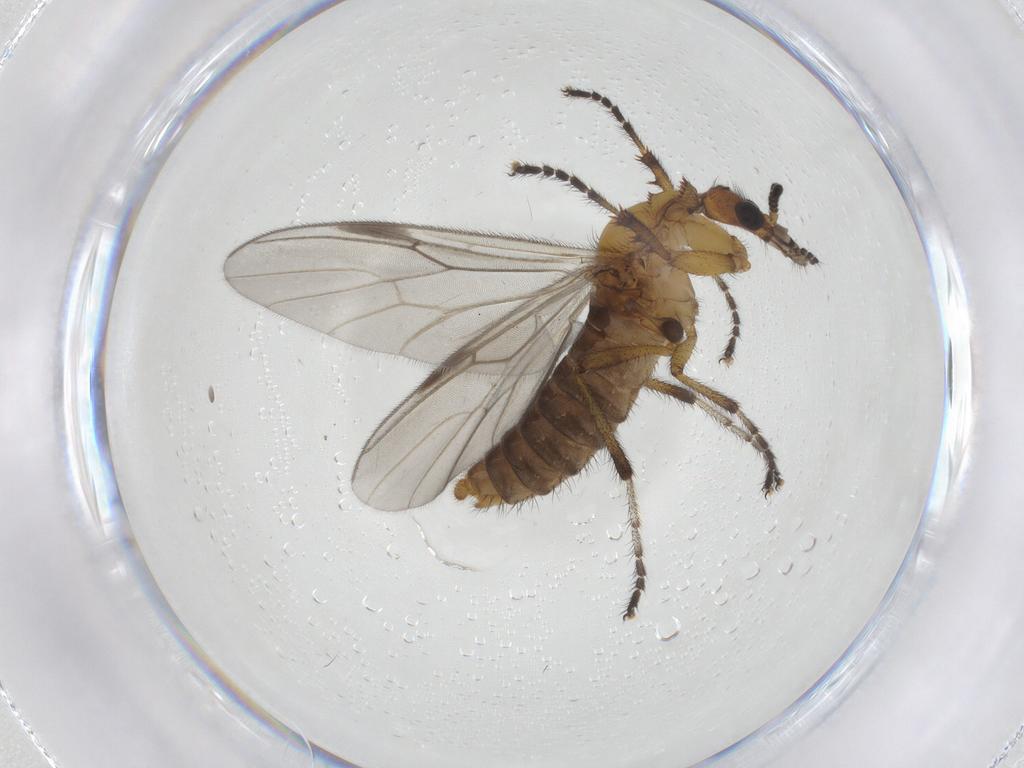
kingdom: Animalia
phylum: Arthropoda
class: Insecta
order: Diptera
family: Bibionidae
